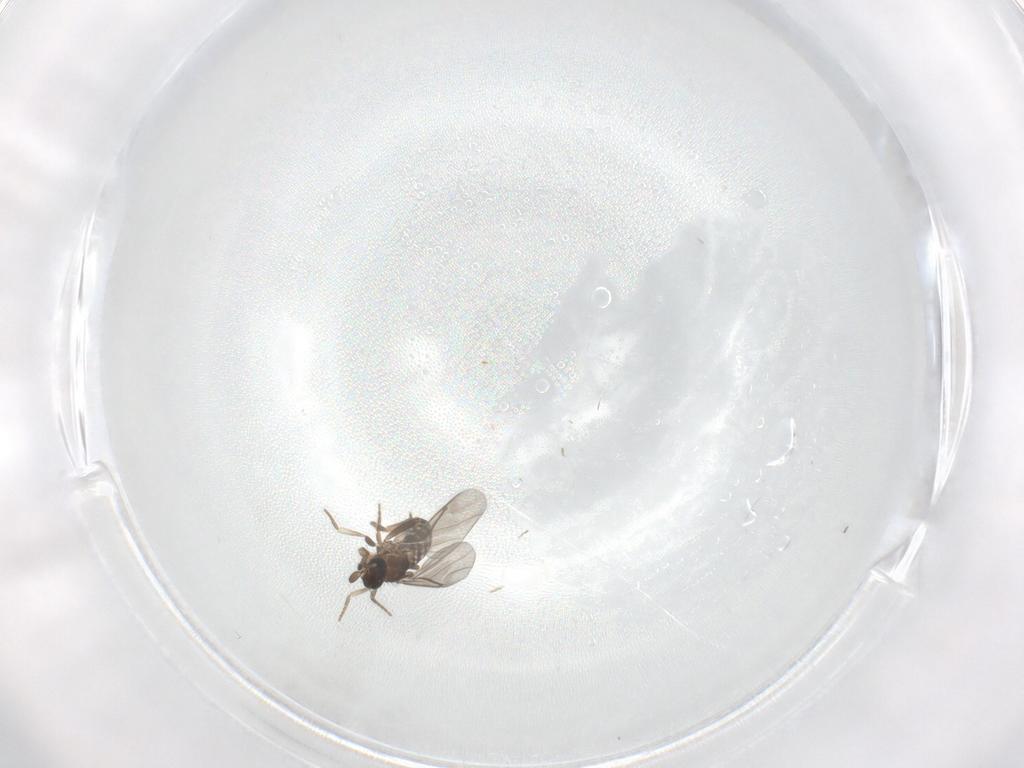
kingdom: Animalia
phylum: Arthropoda
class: Insecta
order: Diptera
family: Sciaridae
